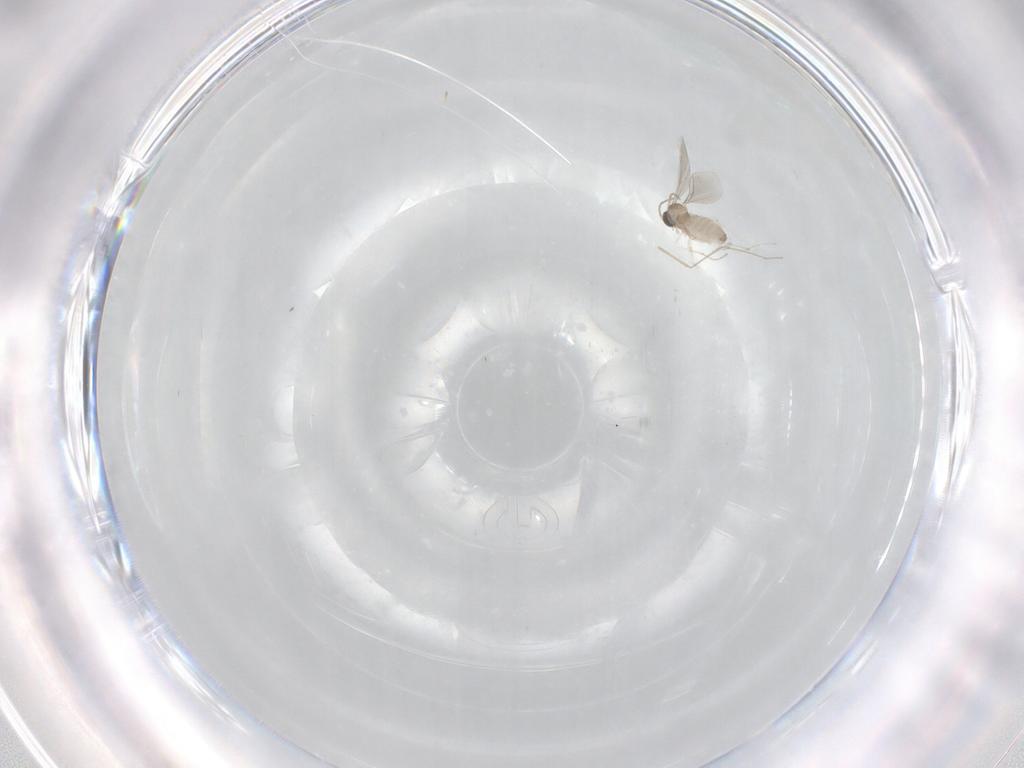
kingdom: Animalia
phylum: Arthropoda
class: Insecta
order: Diptera
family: Cecidomyiidae
